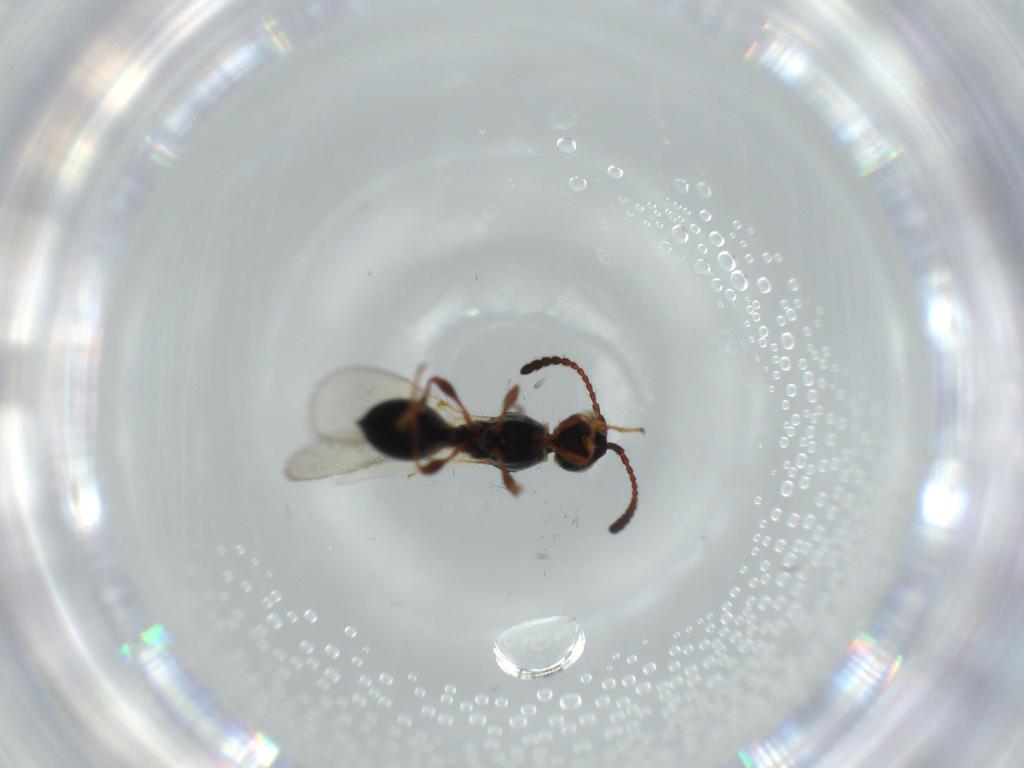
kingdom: Animalia
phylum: Arthropoda
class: Insecta
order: Hymenoptera
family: Diapriidae
